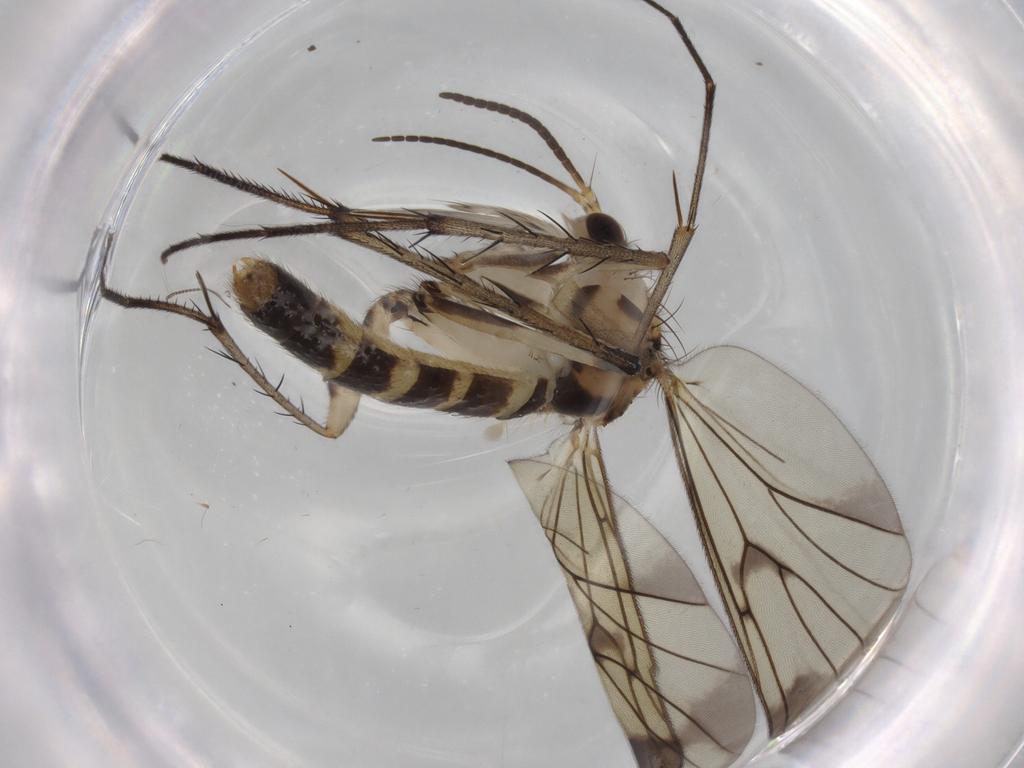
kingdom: Animalia
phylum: Arthropoda
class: Insecta
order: Diptera
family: Mycetophilidae
